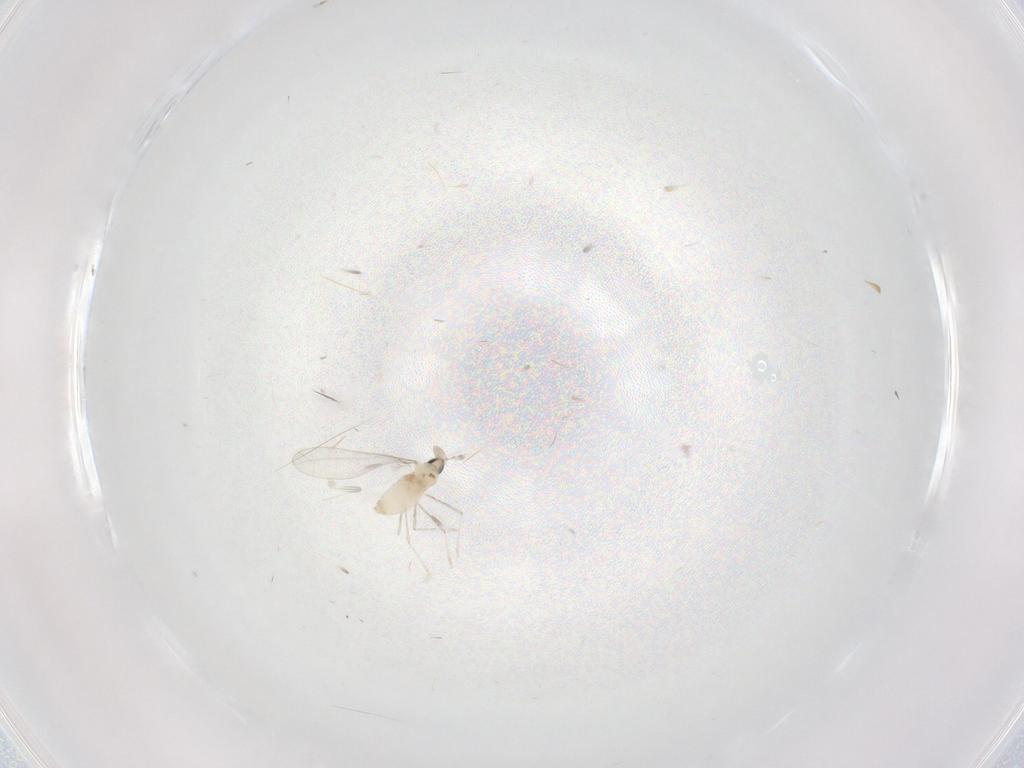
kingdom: Animalia
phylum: Arthropoda
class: Insecta
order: Diptera
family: Cecidomyiidae
